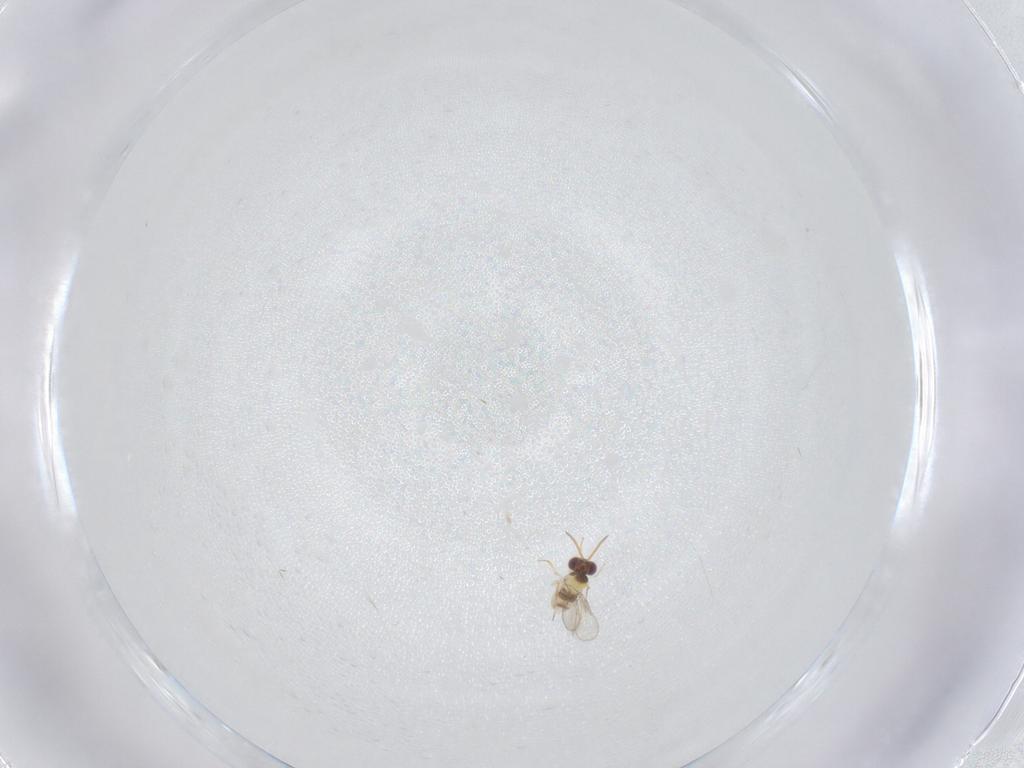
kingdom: Animalia
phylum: Arthropoda
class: Insecta
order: Hymenoptera
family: Aphelinidae
